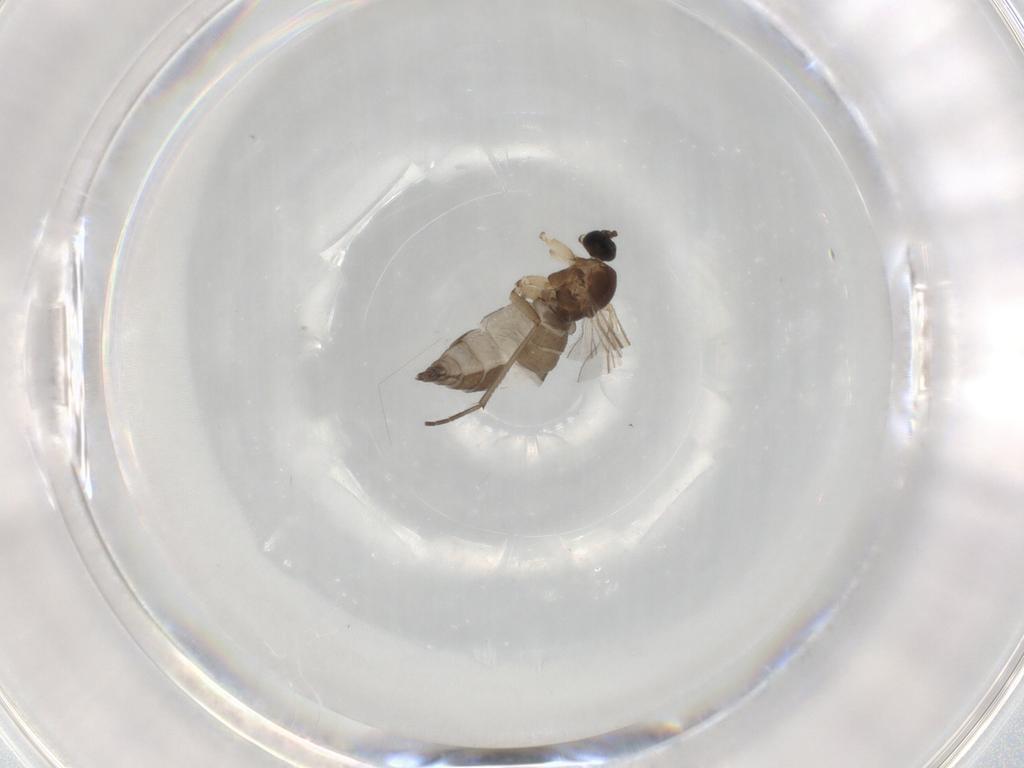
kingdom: Animalia
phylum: Arthropoda
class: Insecta
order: Diptera
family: Sciaridae
